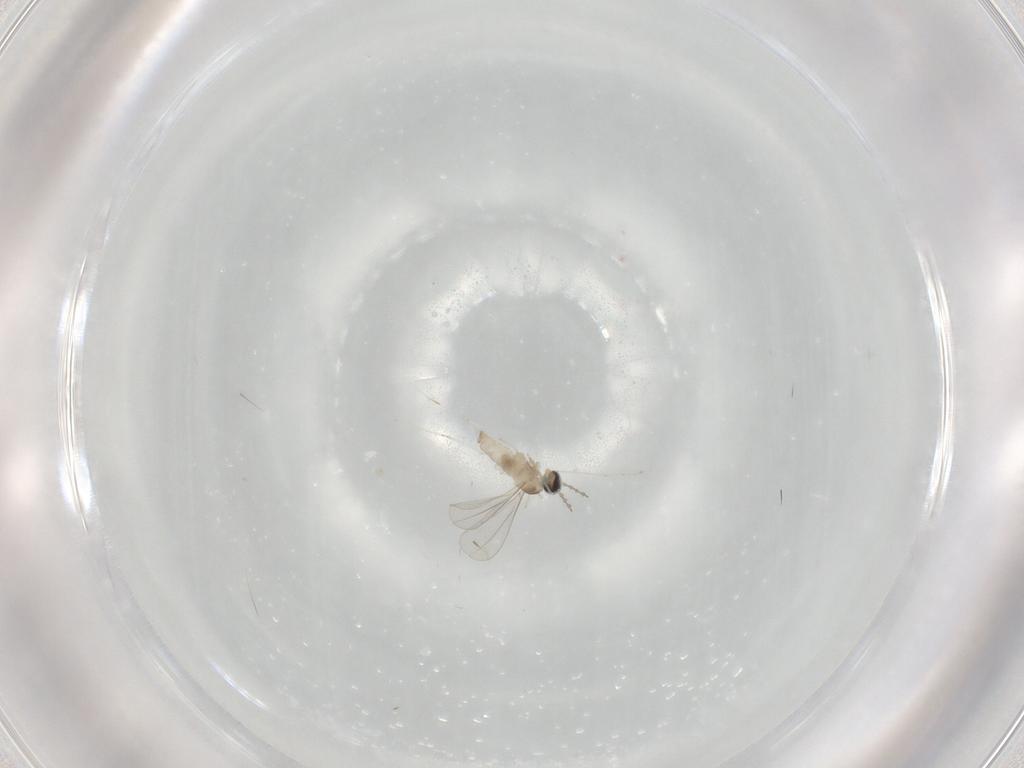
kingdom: Animalia
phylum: Arthropoda
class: Insecta
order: Diptera
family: Cecidomyiidae
